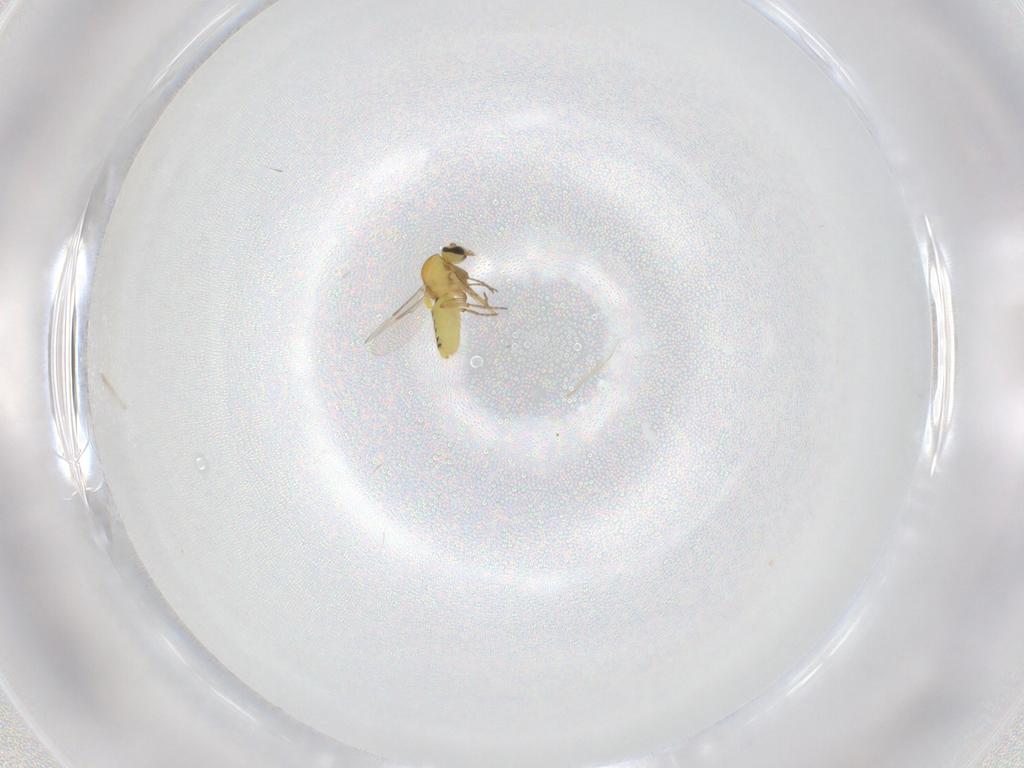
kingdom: Animalia
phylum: Arthropoda
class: Insecta
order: Diptera
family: Ceratopogonidae
